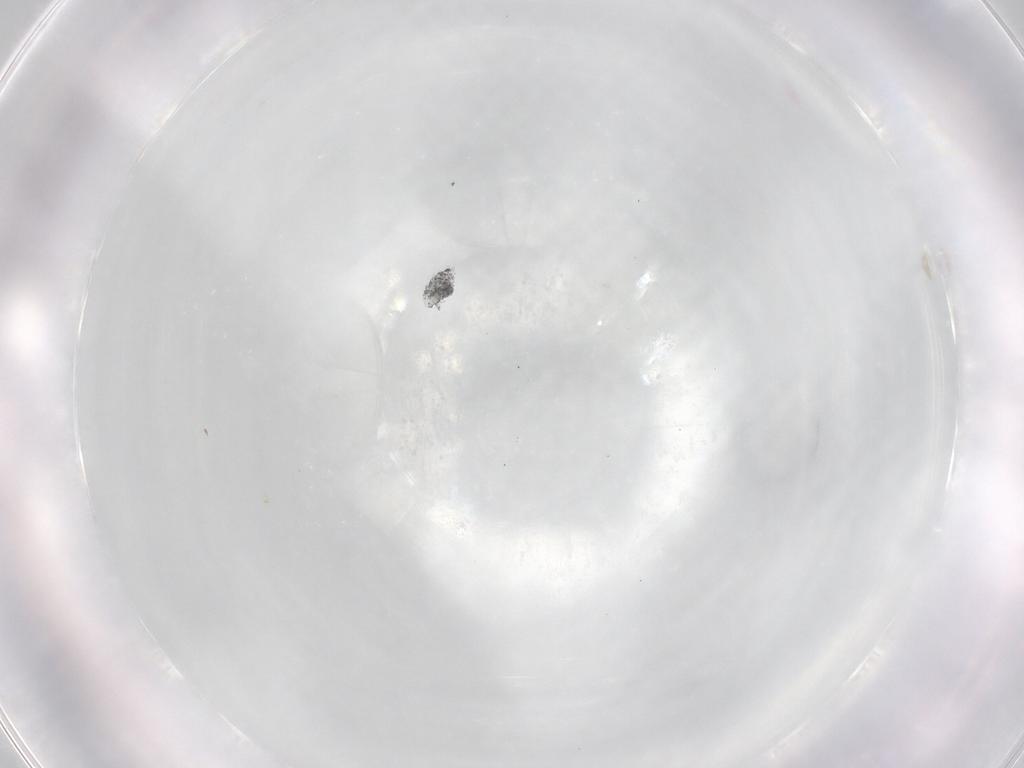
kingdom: Animalia
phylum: Arthropoda
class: Arachnida
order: Trombidiformes
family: Pygmephoridae
